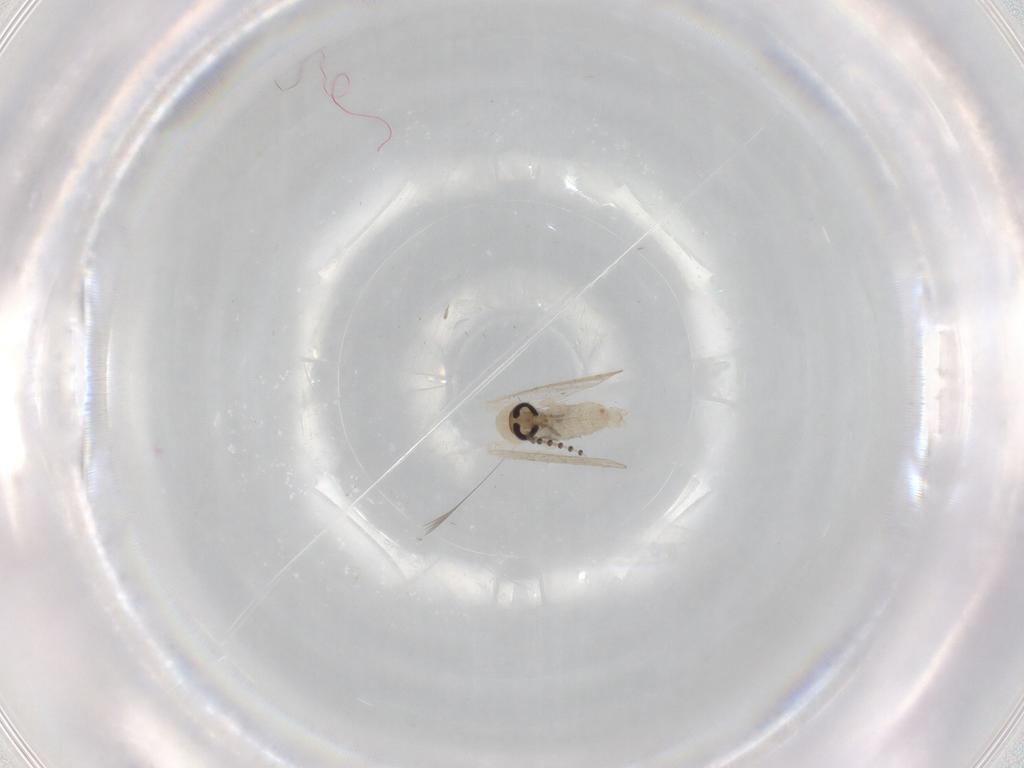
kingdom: Animalia
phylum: Arthropoda
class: Insecta
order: Diptera
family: Psychodidae
